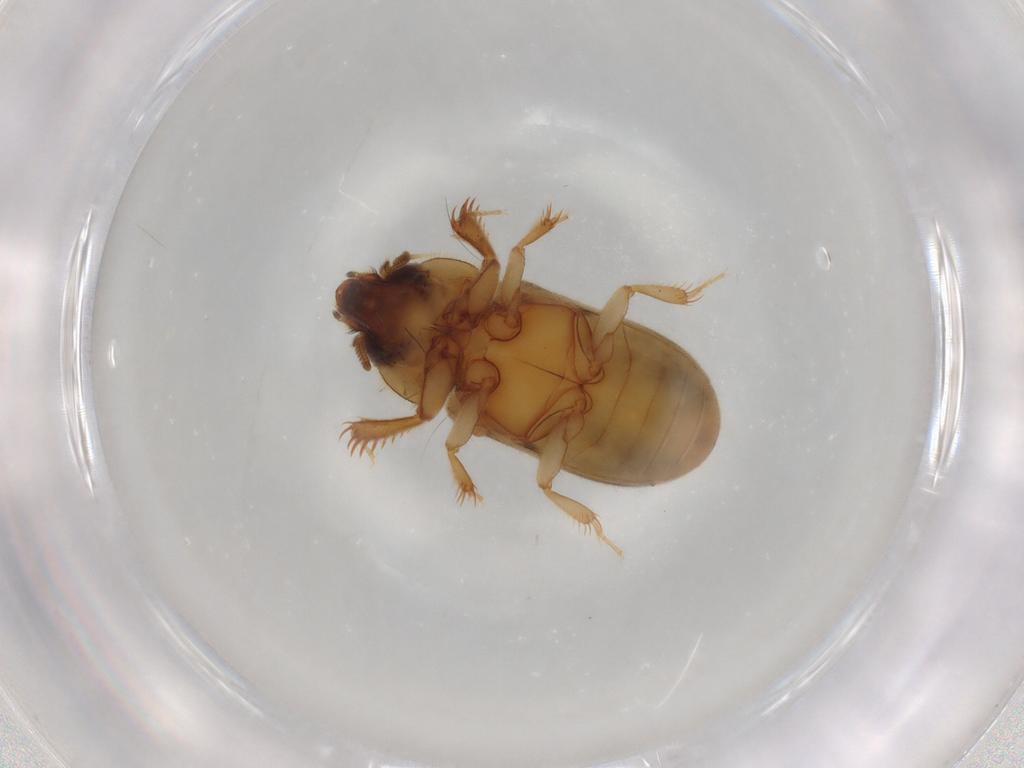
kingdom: Animalia
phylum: Arthropoda
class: Insecta
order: Coleoptera
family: Heteroceridae
